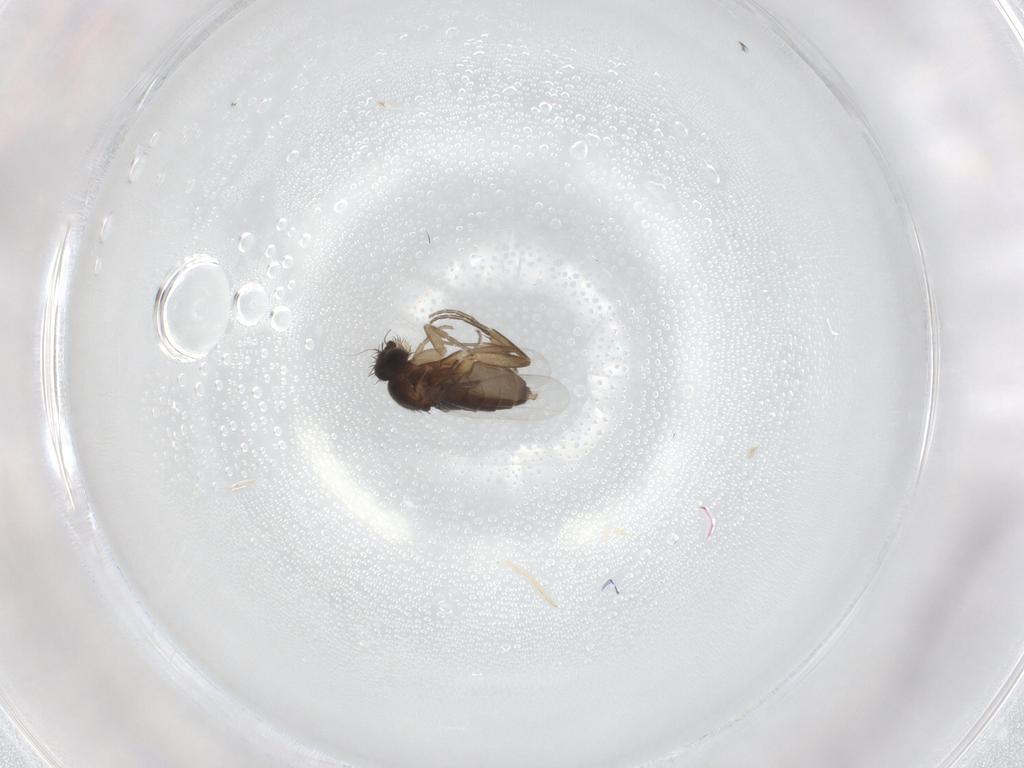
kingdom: Animalia
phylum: Arthropoda
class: Insecta
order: Diptera
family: Phoridae
